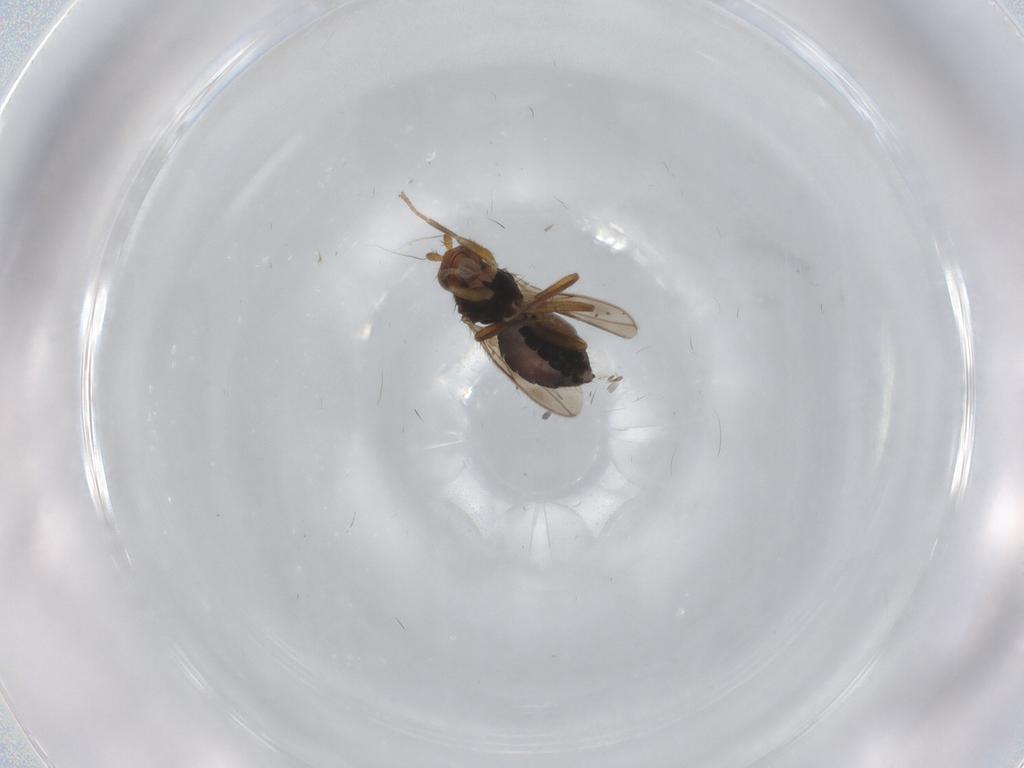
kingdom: Animalia
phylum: Arthropoda
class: Insecta
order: Diptera
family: Sphaeroceridae
